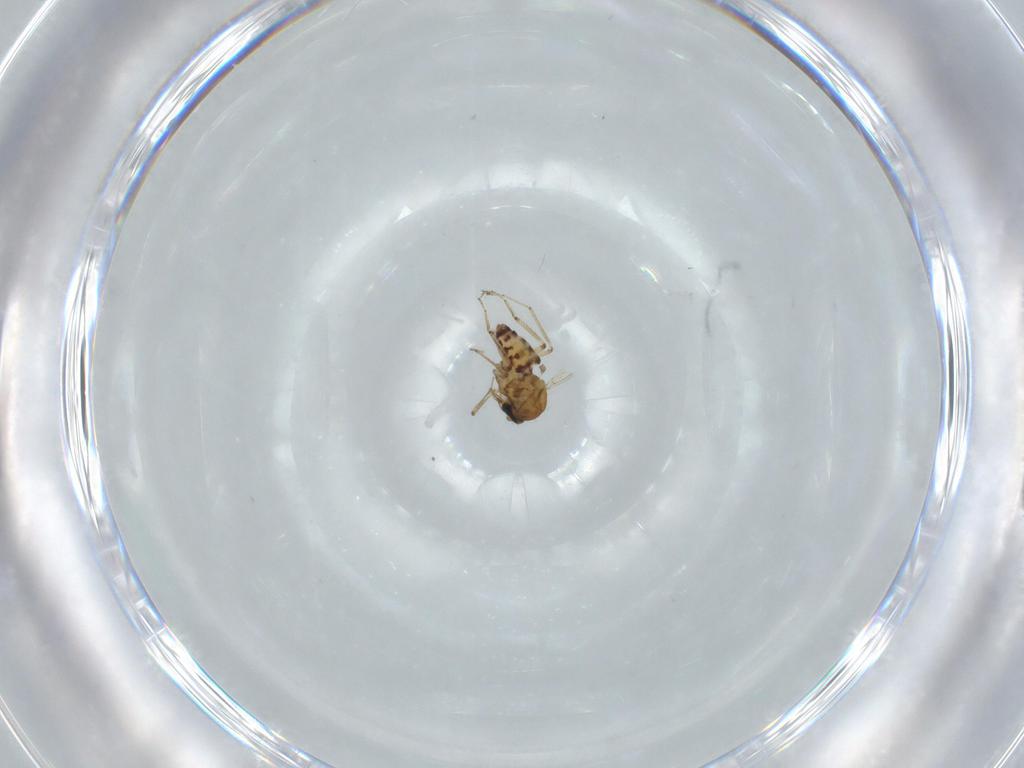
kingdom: Animalia
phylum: Arthropoda
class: Insecta
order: Diptera
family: Ceratopogonidae
